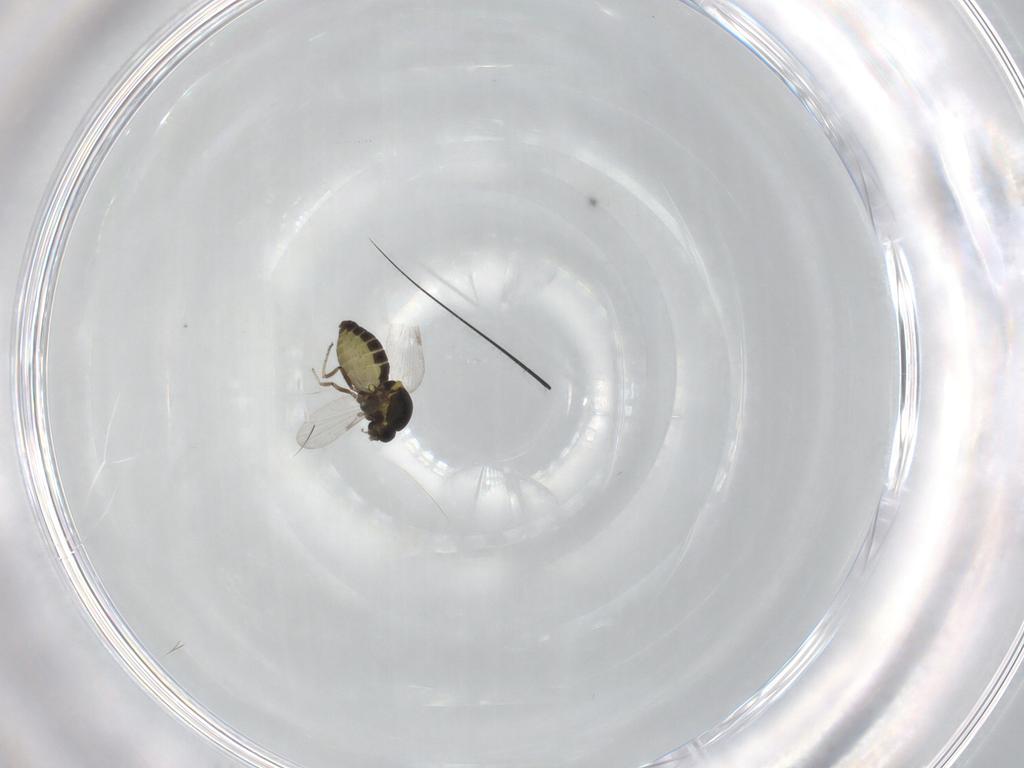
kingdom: Animalia
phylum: Arthropoda
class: Insecta
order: Diptera
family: Ceratopogonidae
